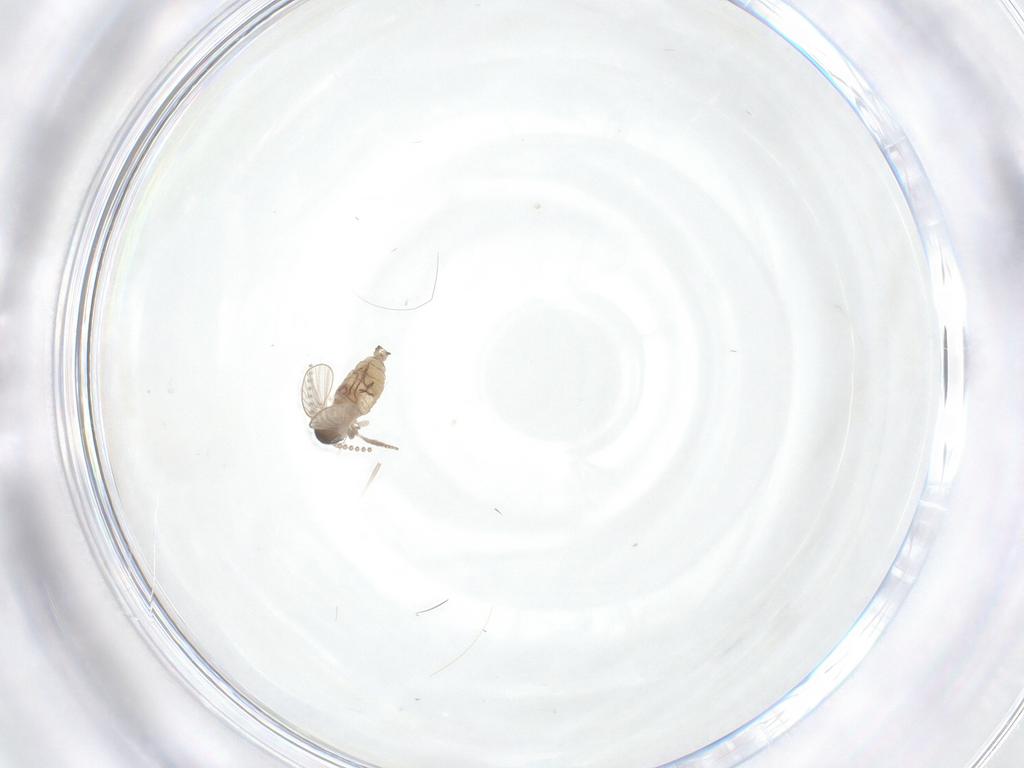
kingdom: Animalia
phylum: Arthropoda
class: Insecta
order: Diptera
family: Psychodidae
